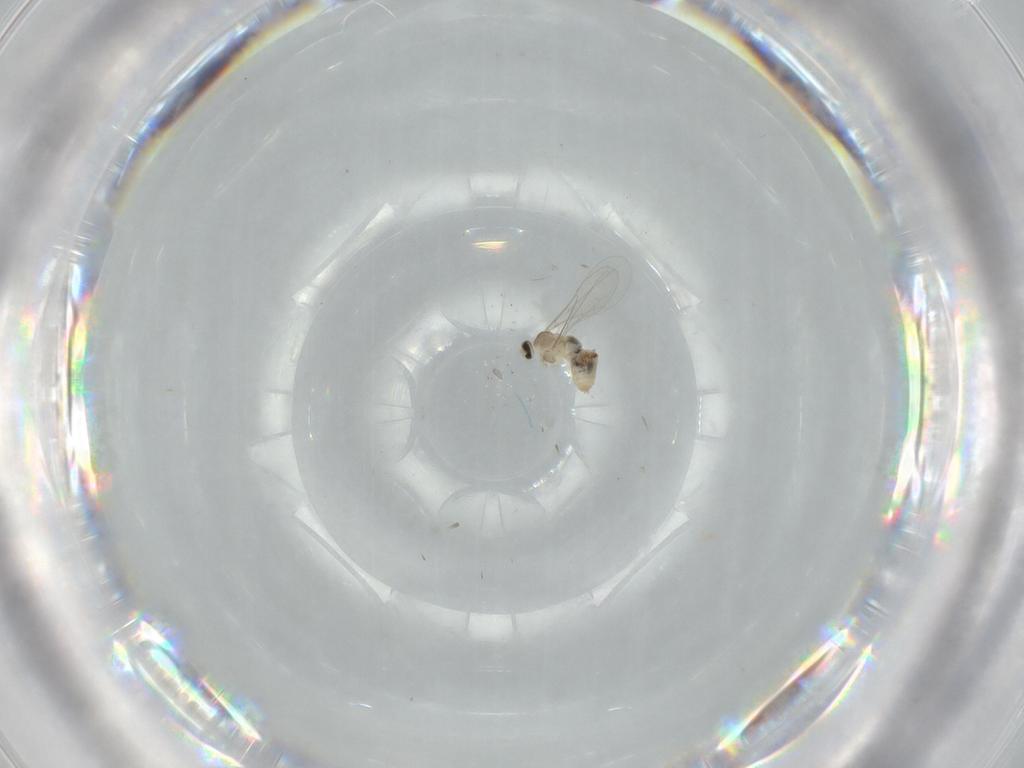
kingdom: Animalia
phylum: Arthropoda
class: Insecta
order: Diptera
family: Cecidomyiidae
